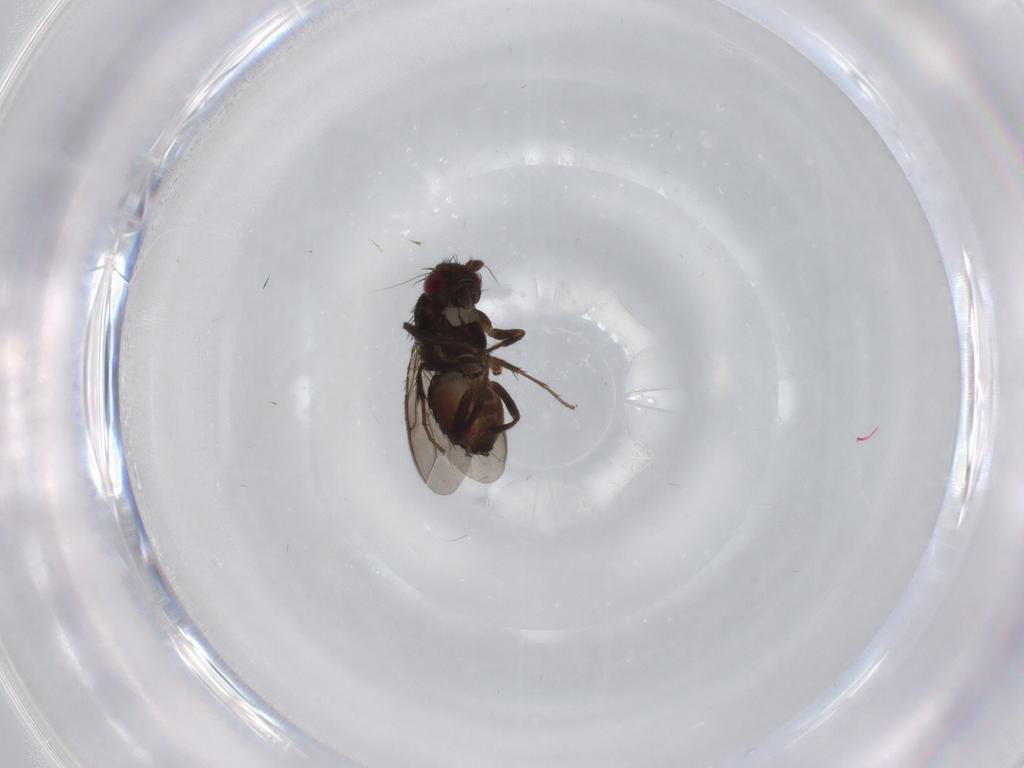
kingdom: Animalia
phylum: Arthropoda
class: Insecta
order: Diptera
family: Sphaeroceridae
